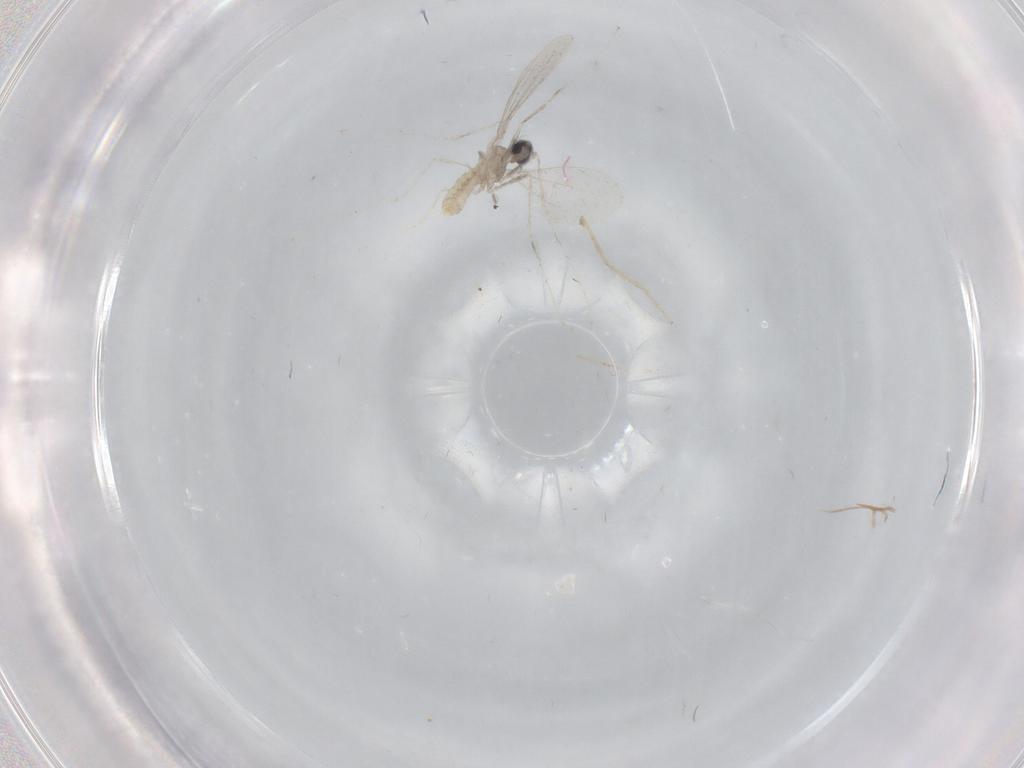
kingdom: Animalia
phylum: Arthropoda
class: Insecta
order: Diptera
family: Cecidomyiidae
